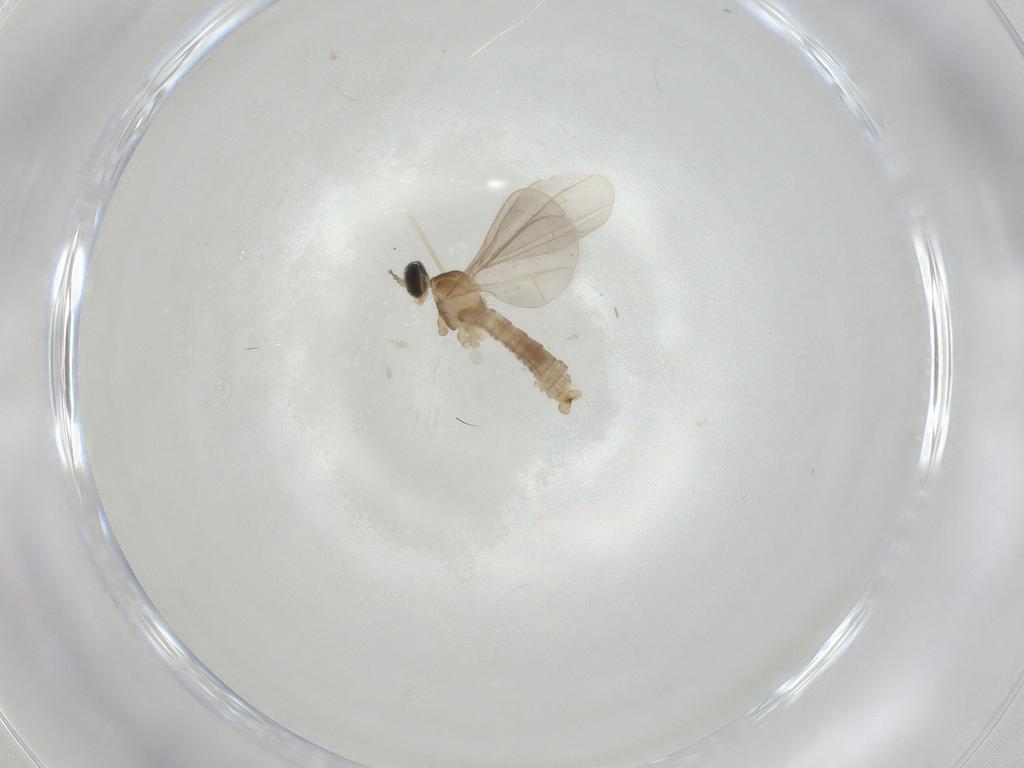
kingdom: Animalia
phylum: Arthropoda
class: Insecta
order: Diptera
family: Cecidomyiidae
